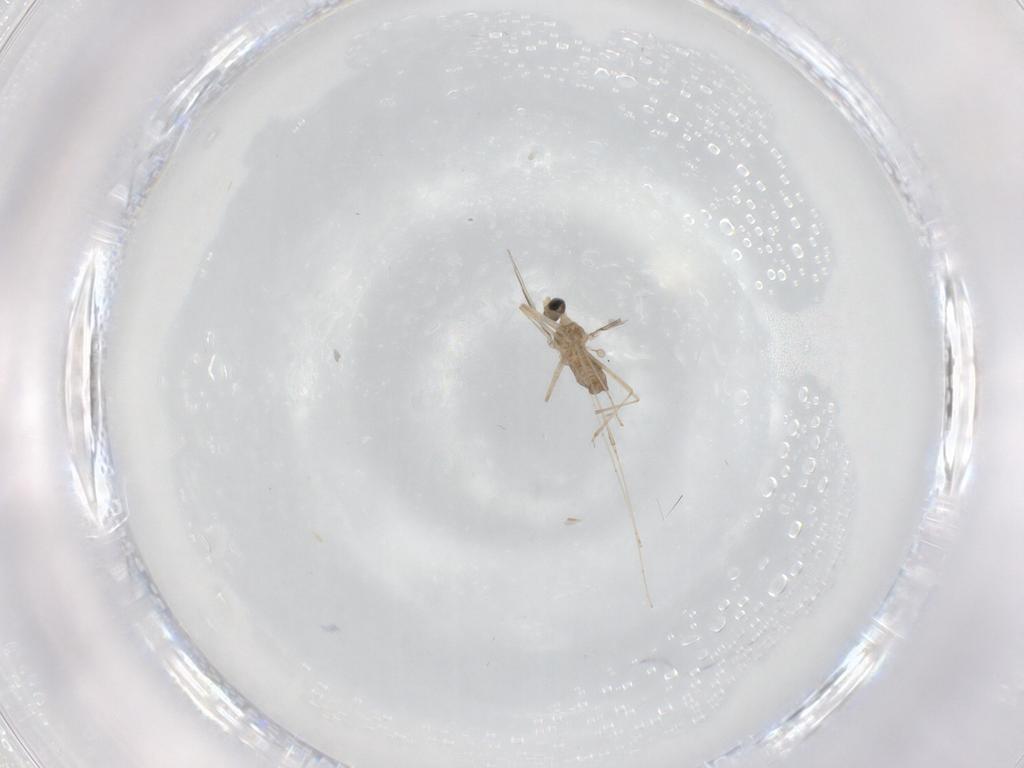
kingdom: Animalia
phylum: Arthropoda
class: Insecta
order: Diptera
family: Cecidomyiidae
